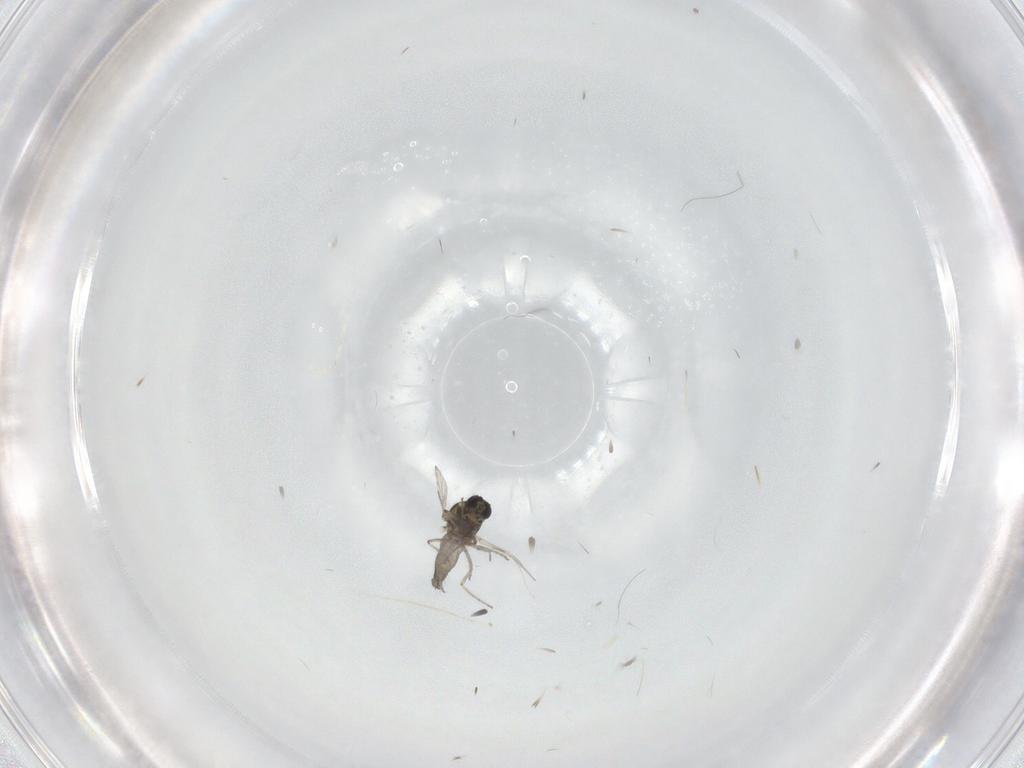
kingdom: Animalia
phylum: Arthropoda
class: Insecta
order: Diptera
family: Ceratopogonidae
